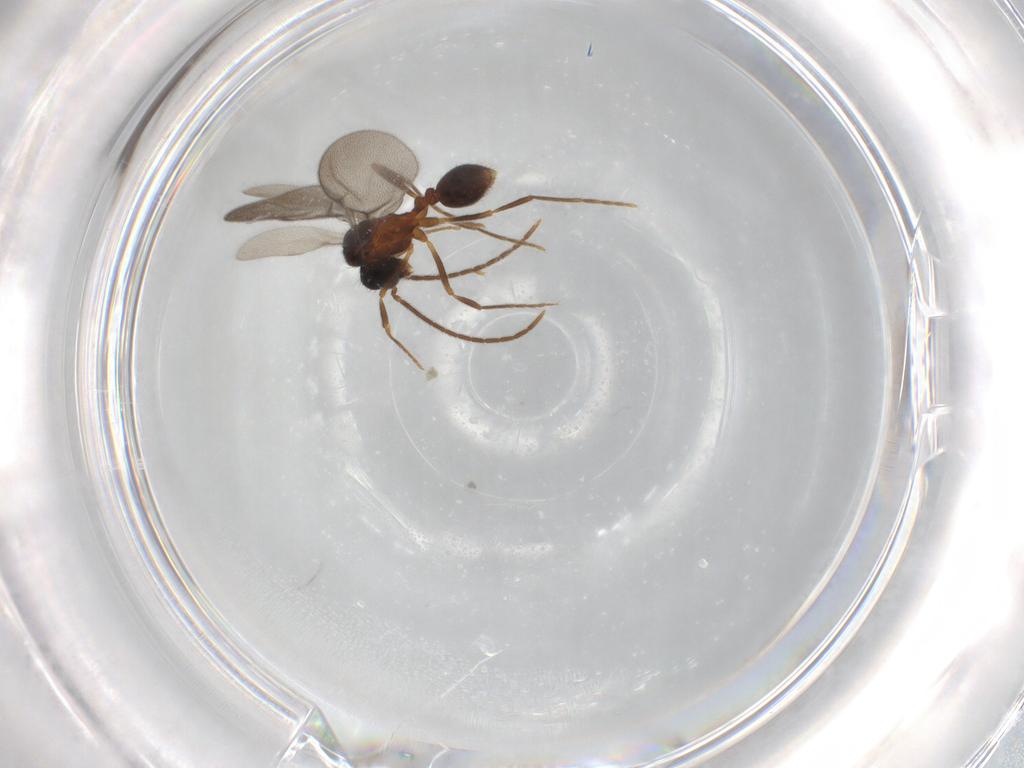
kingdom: Animalia
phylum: Arthropoda
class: Insecta
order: Hymenoptera
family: Formicidae
